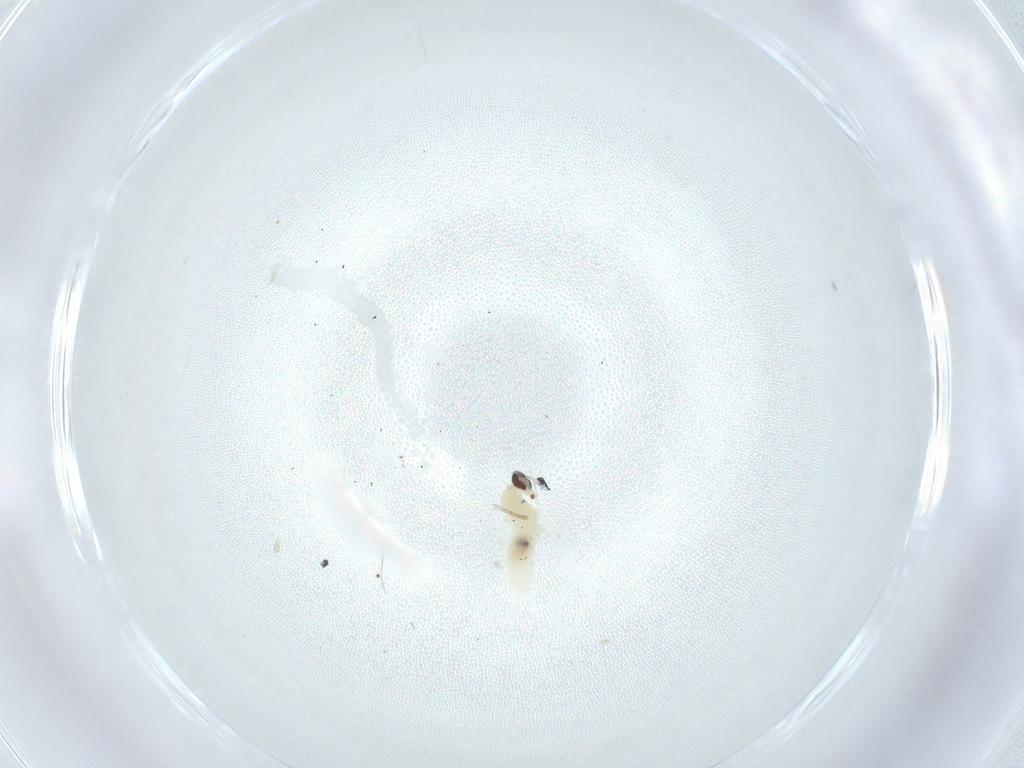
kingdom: Animalia
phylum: Arthropoda
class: Insecta
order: Diptera
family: Cecidomyiidae
